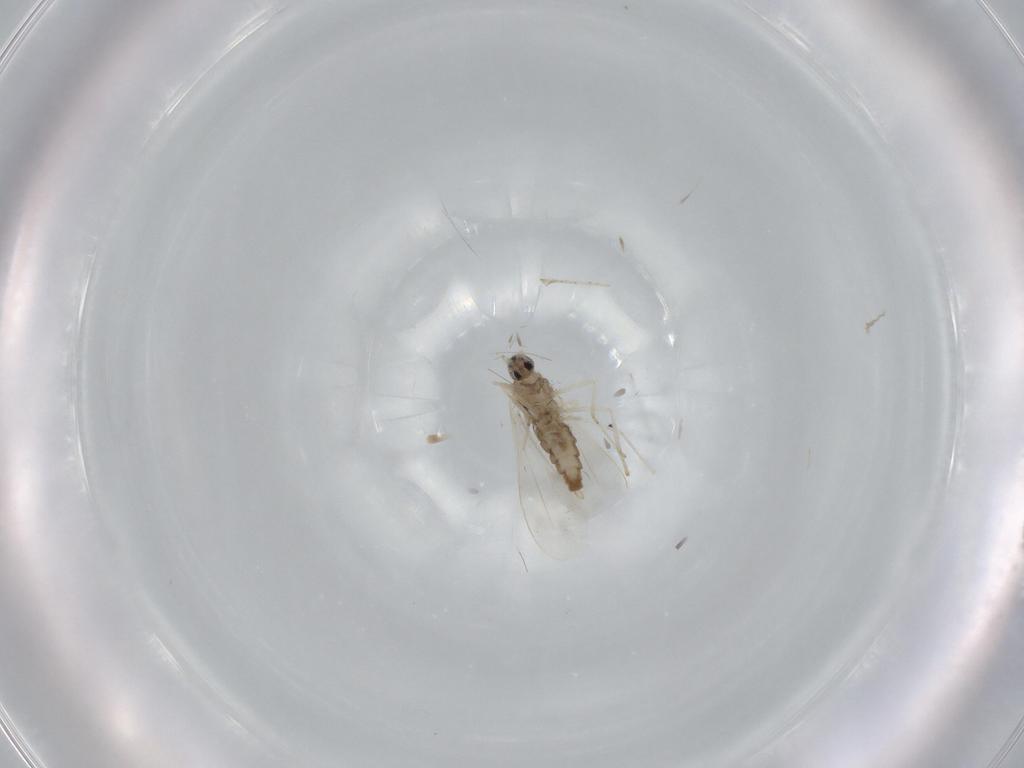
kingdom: Animalia
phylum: Arthropoda
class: Insecta
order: Diptera
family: Cecidomyiidae
